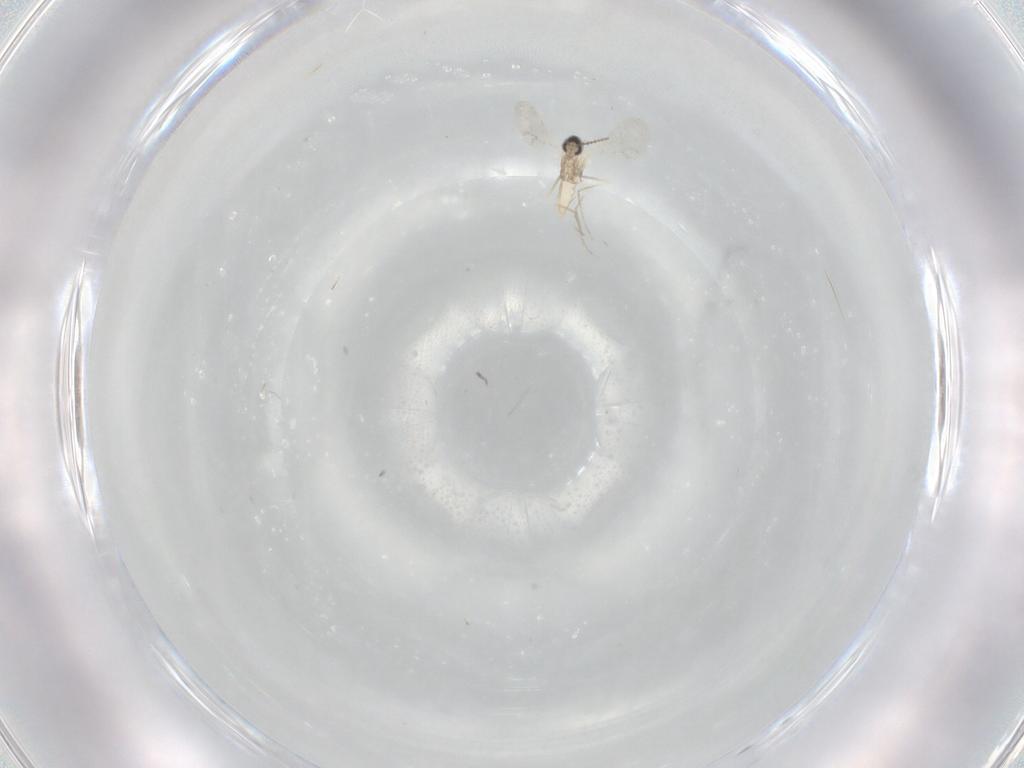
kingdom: Animalia
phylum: Arthropoda
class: Insecta
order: Diptera
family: Cecidomyiidae
